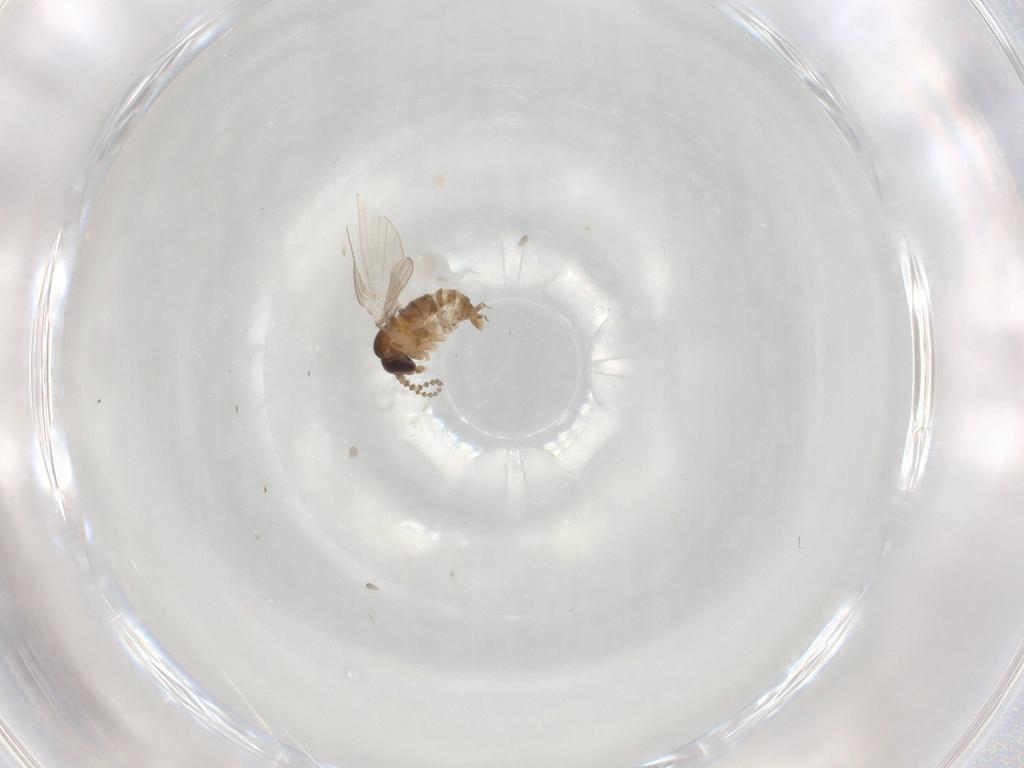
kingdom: Animalia
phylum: Arthropoda
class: Insecta
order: Diptera
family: Psychodidae
